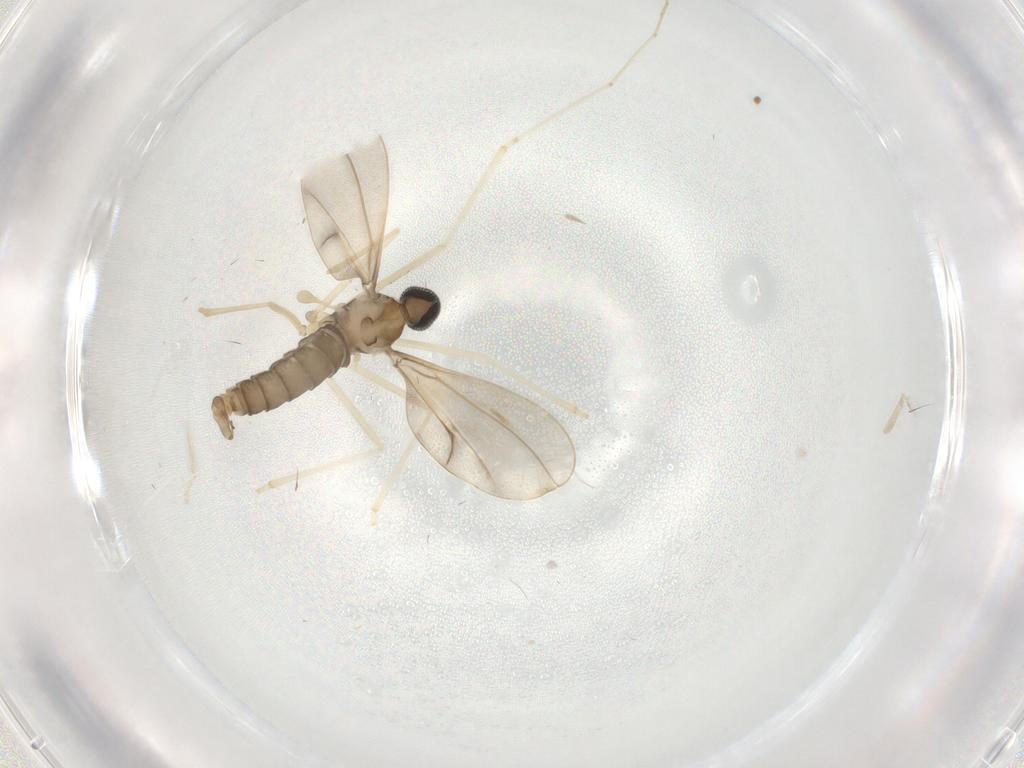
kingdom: Animalia
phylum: Arthropoda
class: Insecta
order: Diptera
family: Cecidomyiidae
